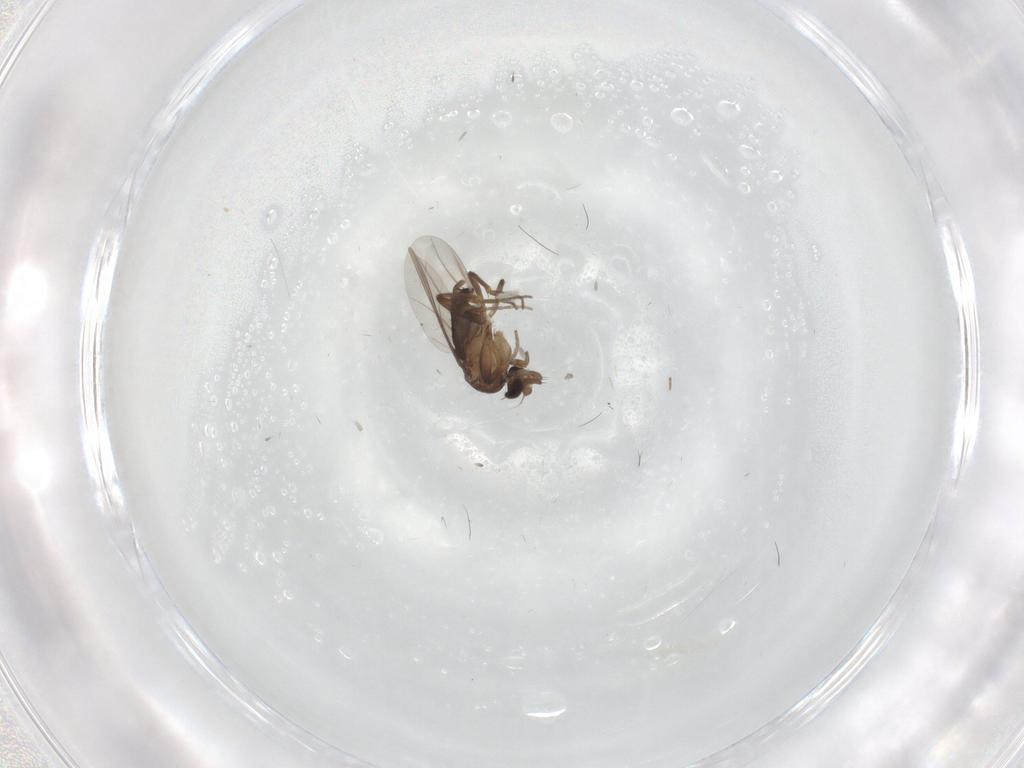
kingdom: Animalia
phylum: Arthropoda
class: Insecta
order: Diptera
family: Phoridae
